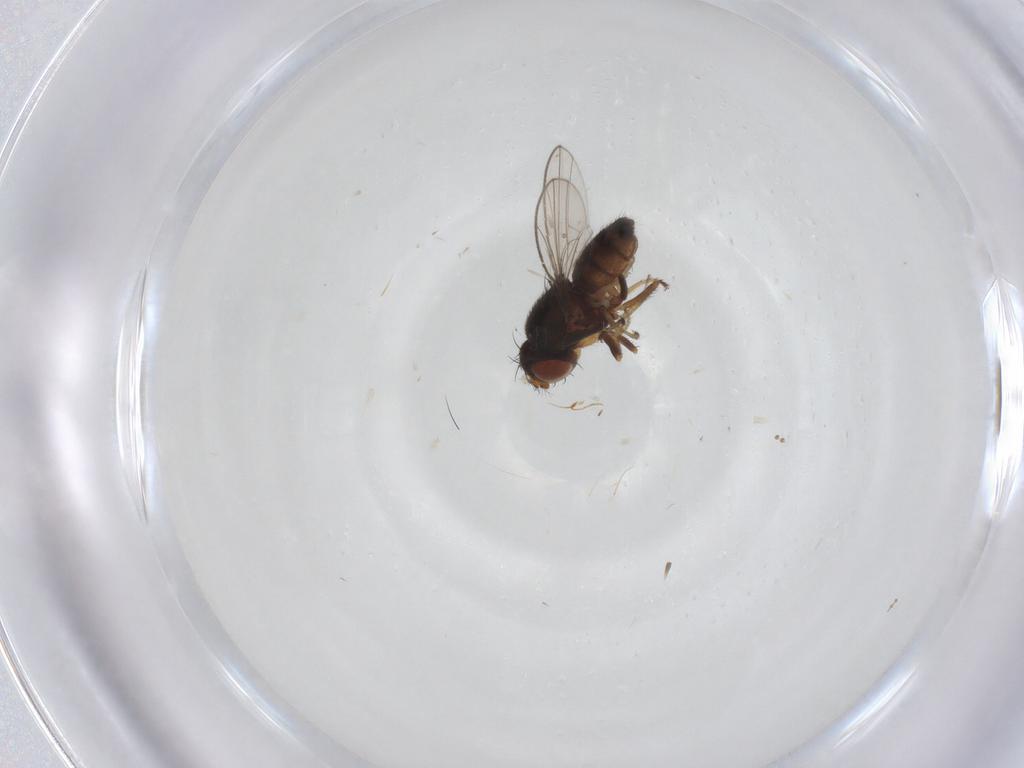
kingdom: Animalia
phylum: Arthropoda
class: Insecta
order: Diptera
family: Ephydridae
